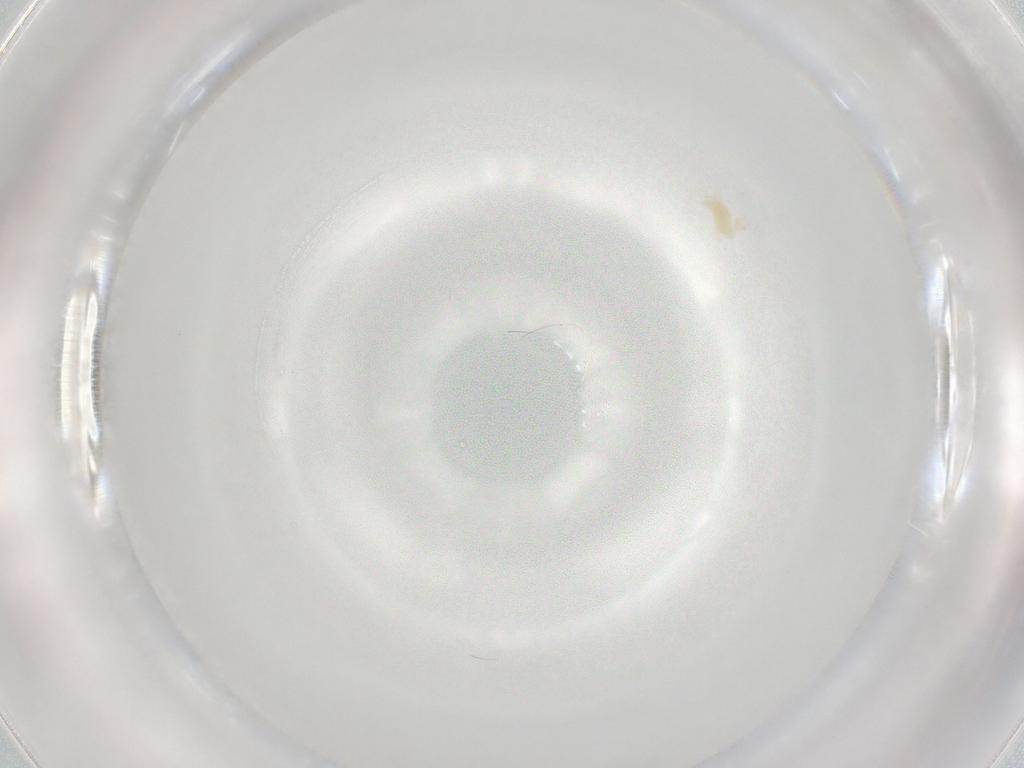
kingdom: Animalia
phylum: Arthropoda
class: Arachnida
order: Trombidiformes
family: Eupodidae
